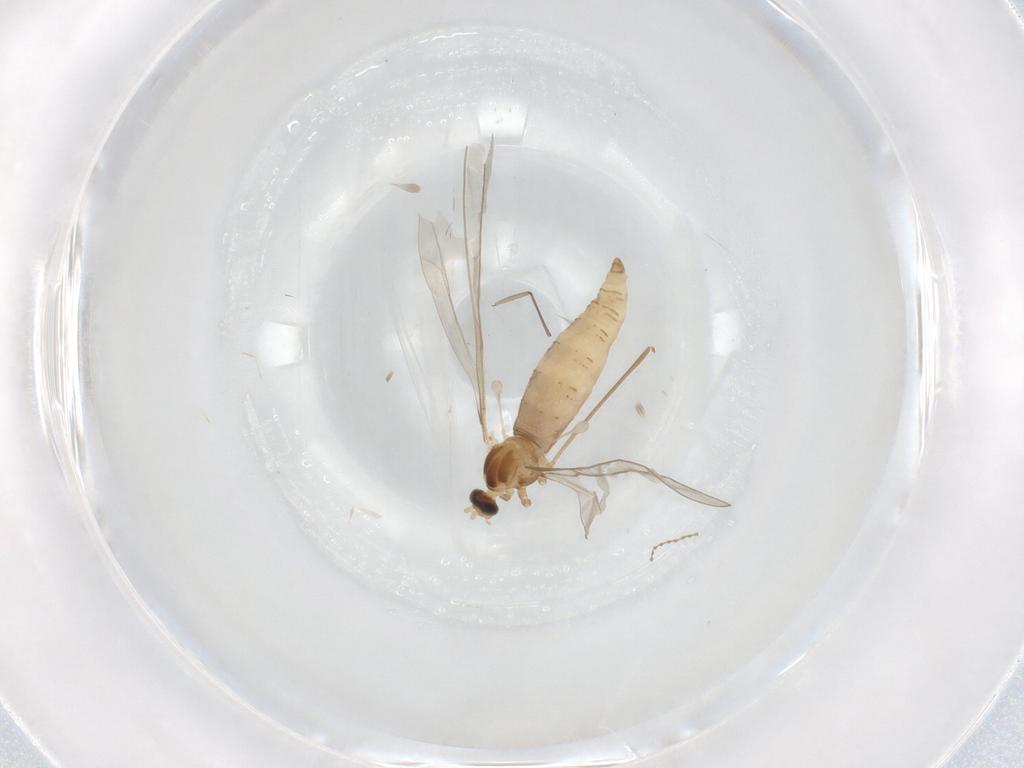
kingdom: Animalia
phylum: Arthropoda
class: Insecta
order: Diptera
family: Cecidomyiidae
